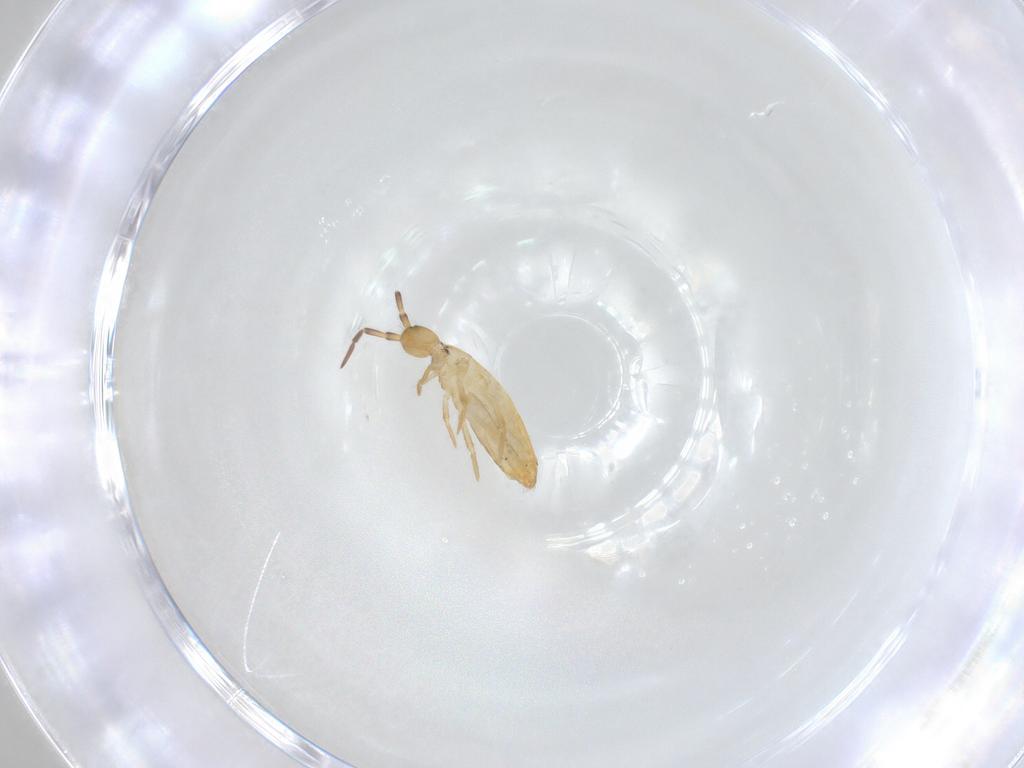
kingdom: Animalia
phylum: Arthropoda
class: Collembola
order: Entomobryomorpha
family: Entomobryidae
